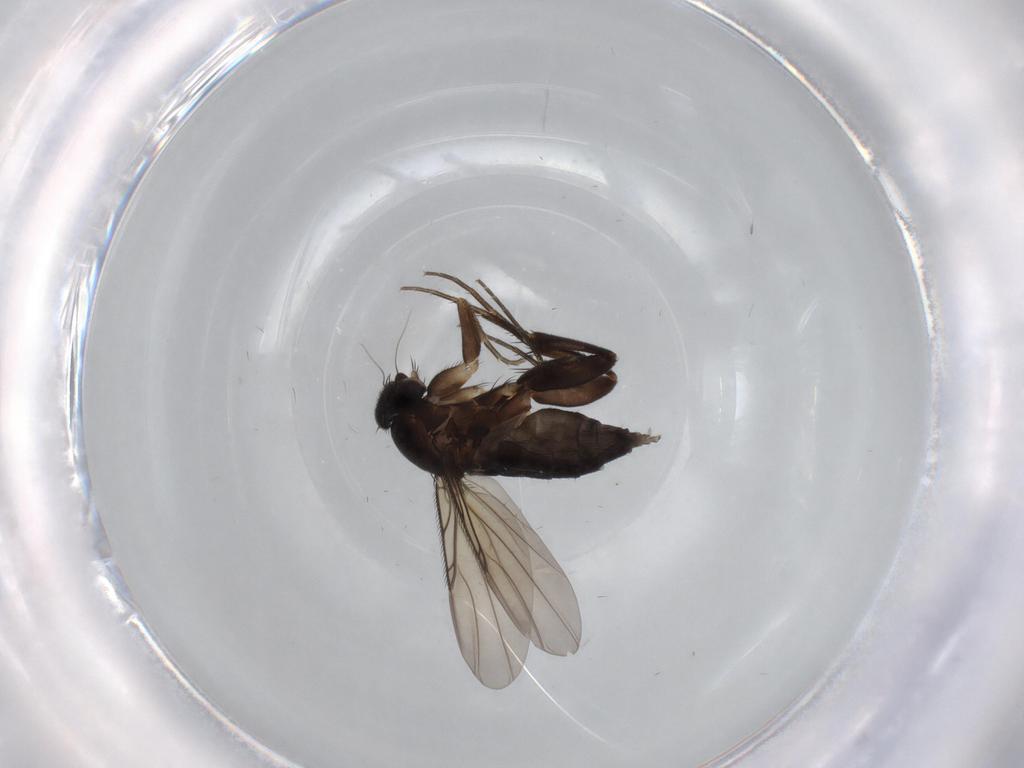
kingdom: Animalia
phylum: Arthropoda
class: Insecta
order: Diptera
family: Phoridae
